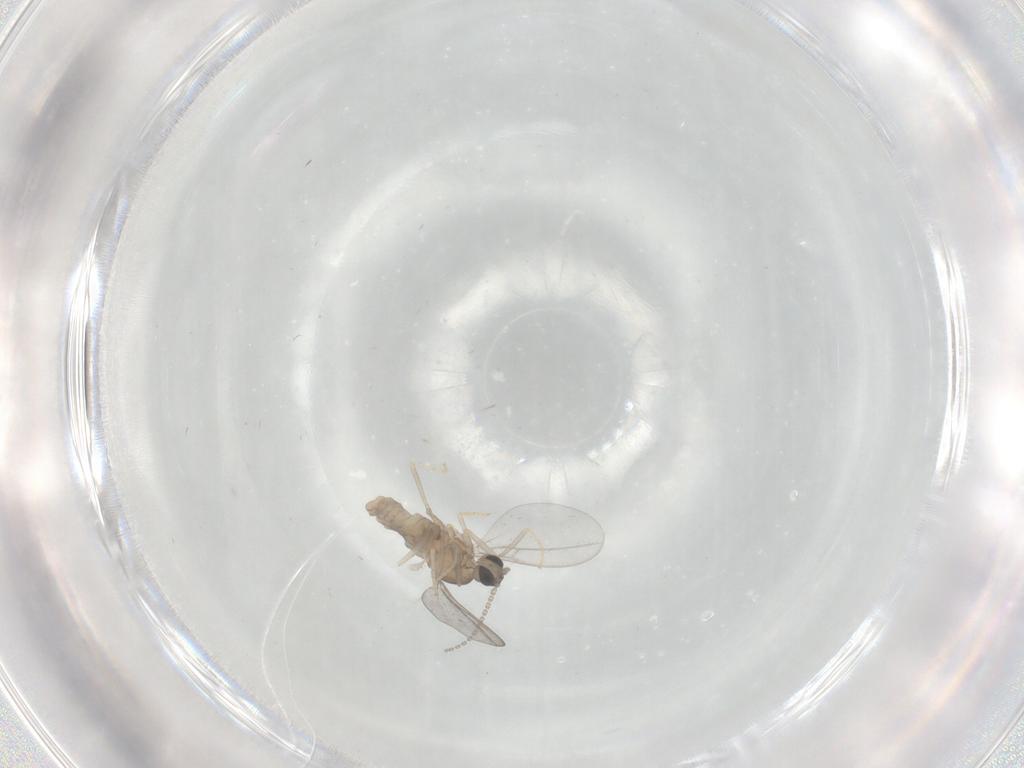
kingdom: Animalia
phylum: Arthropoda
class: Insecta
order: Diptera
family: Cecidomyiidae
